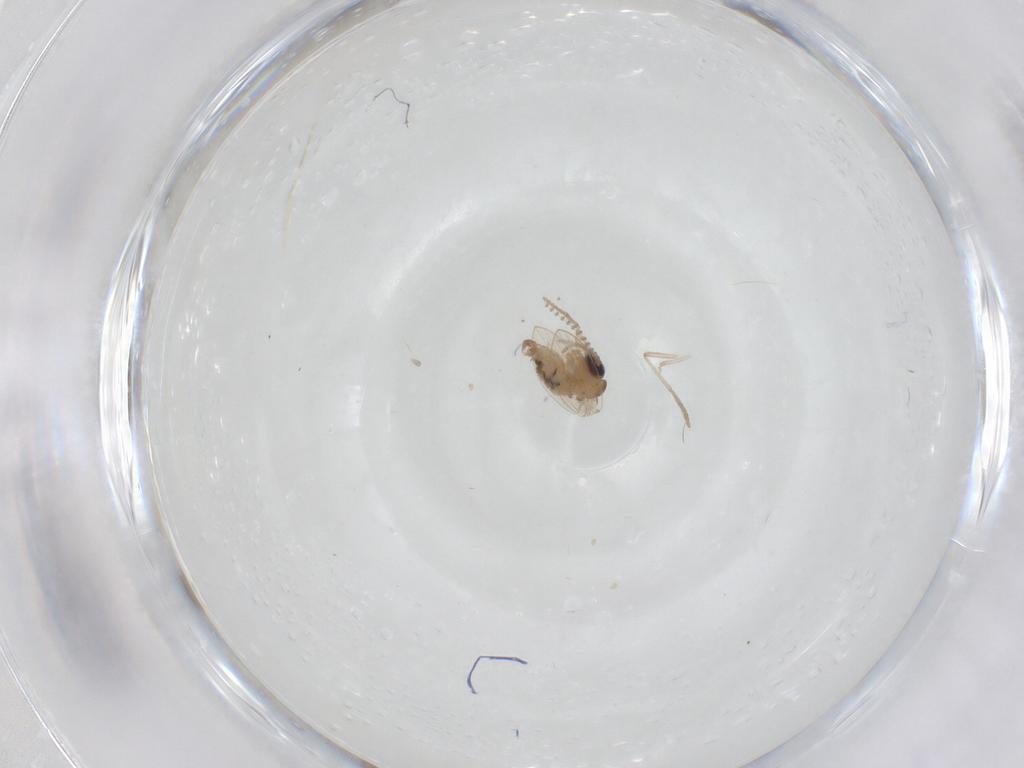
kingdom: Animalia
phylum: Arthropoda
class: Insecta
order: Diptera
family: Psychodidae
